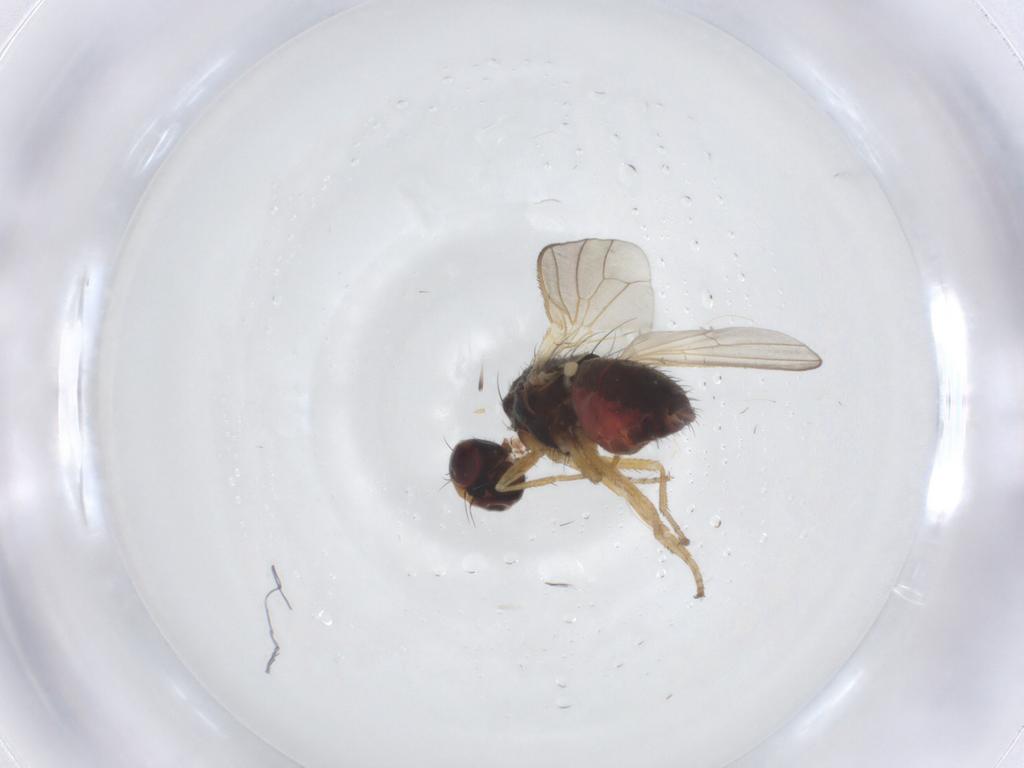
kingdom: Animalia
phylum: Arthropoda
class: Insecta
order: Diptera
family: Heleomyzidae
